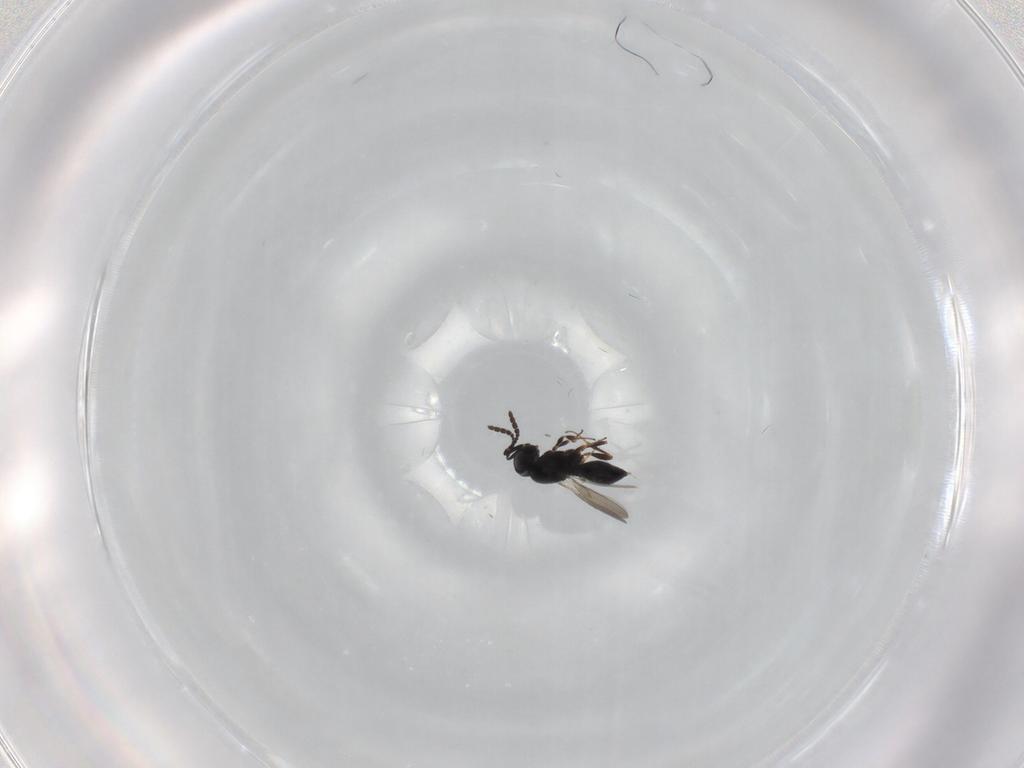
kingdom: Animalia
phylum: Arthropoda
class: Insecta
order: Hymenoptera
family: Scelionidae
